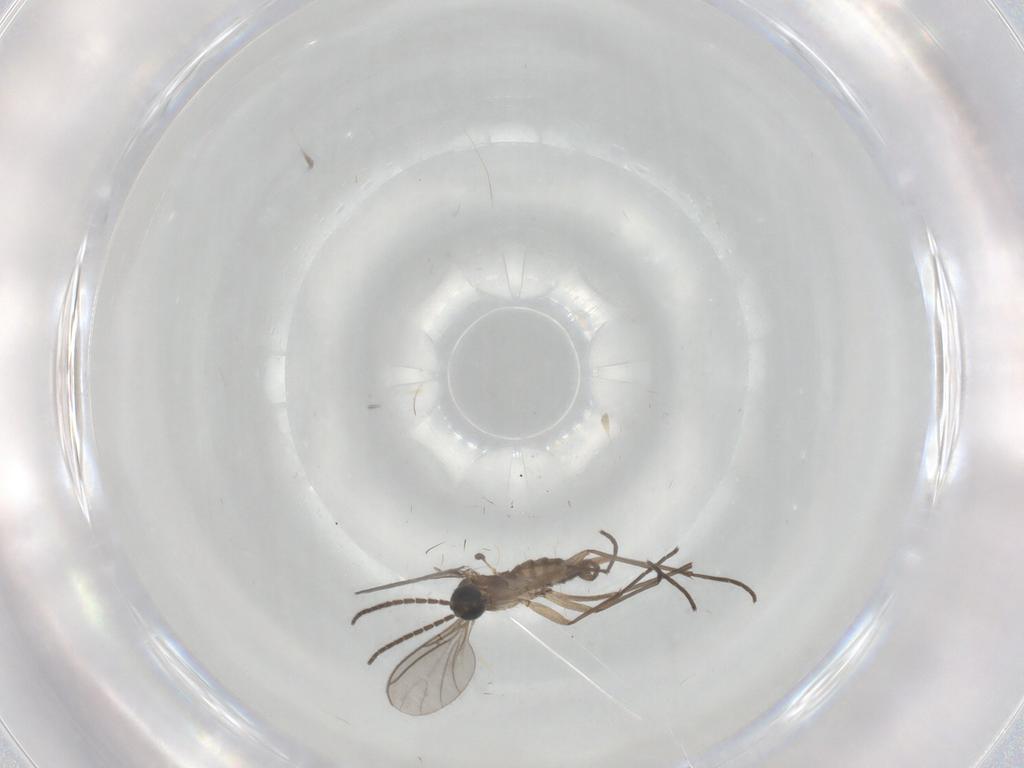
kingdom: Animalia
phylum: Arthropoda
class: Insecta
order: Diptera
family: Sciaridae
